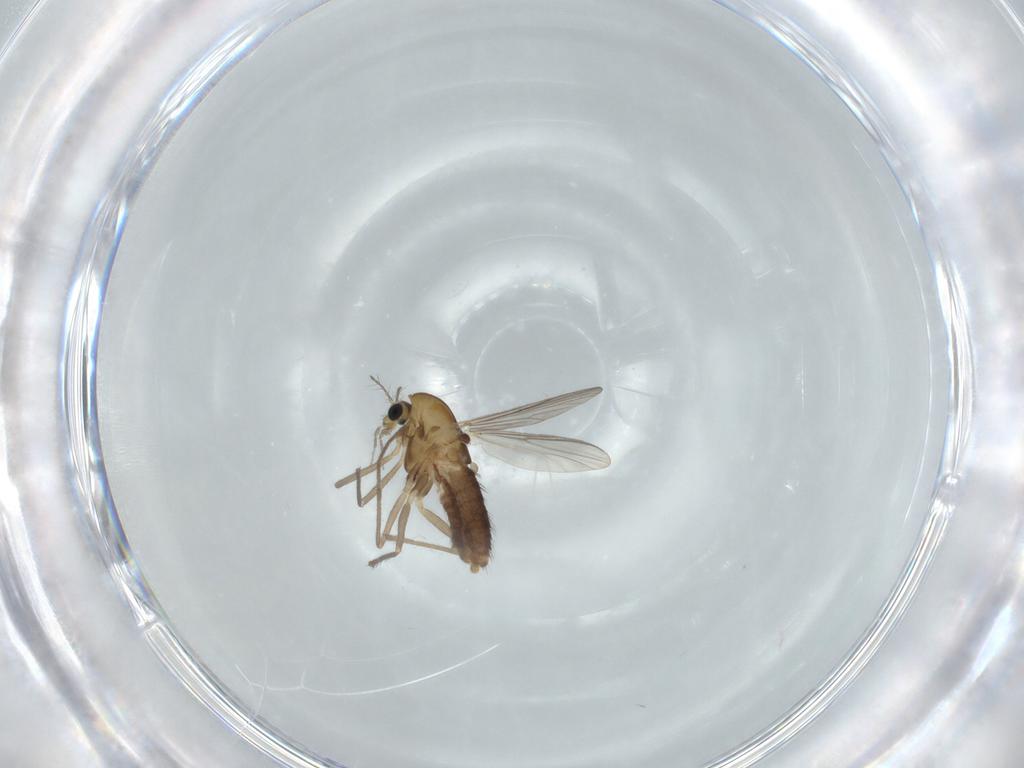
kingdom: Animalia
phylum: Arthropoda
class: Insecta
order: Diptera
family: Chironomidae
